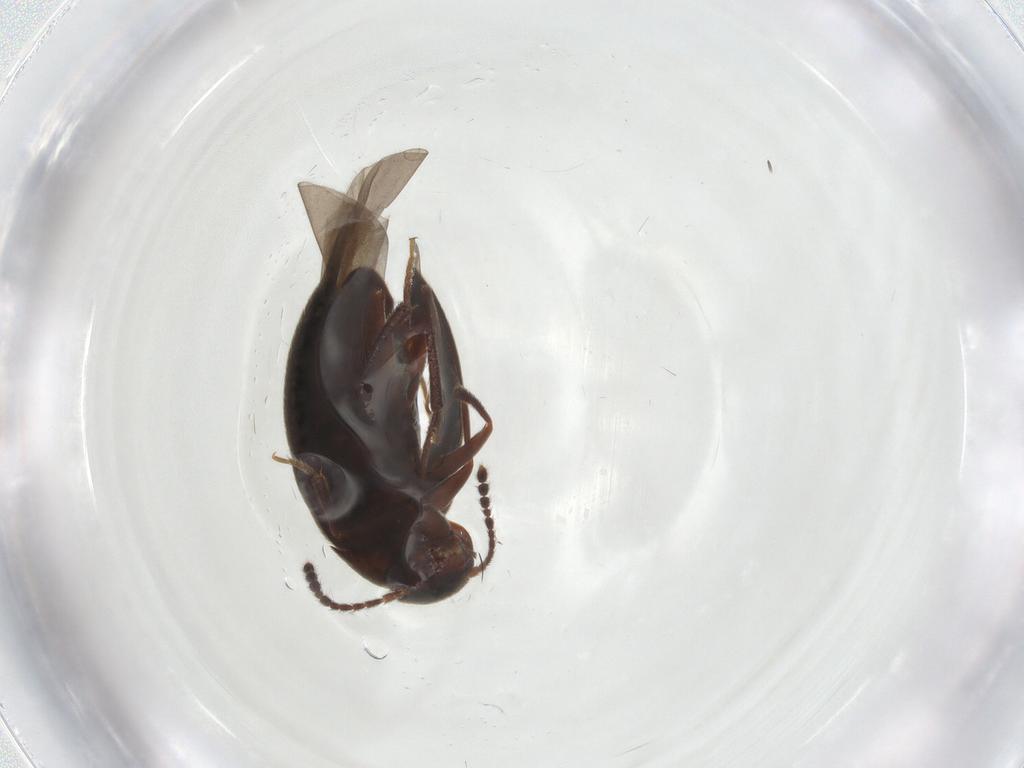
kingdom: Animalia
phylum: Arthropoda
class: Insecta
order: Coleoptera
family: Leiodidae
